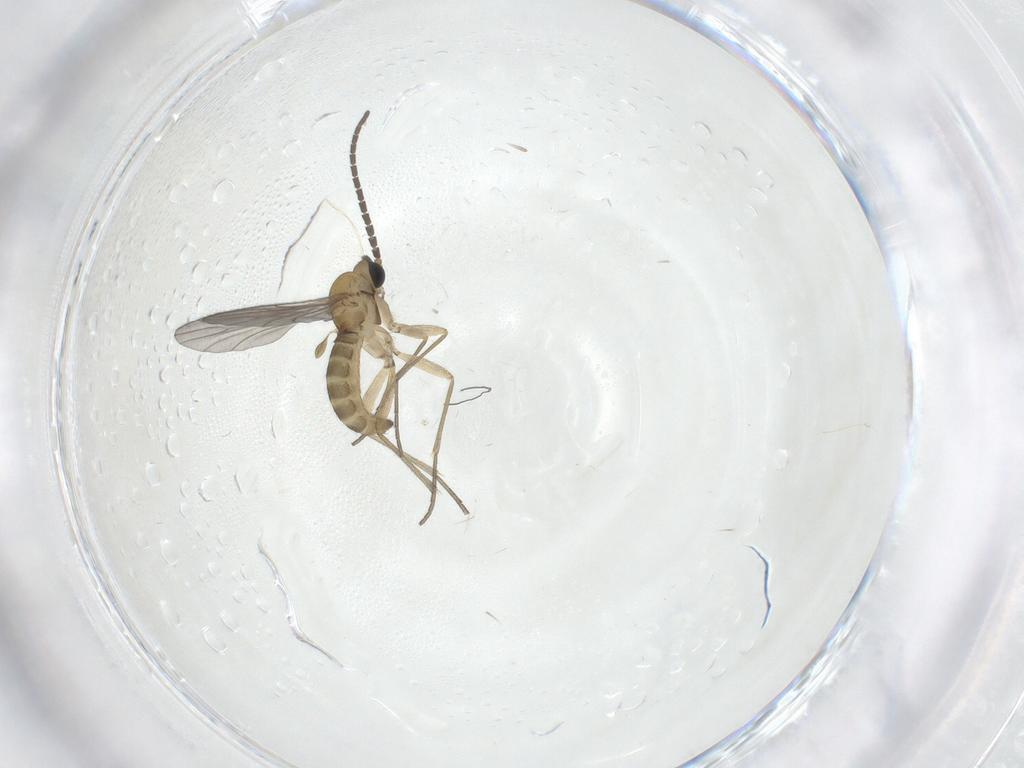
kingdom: Animalia
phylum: Arthropoda
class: Insecta
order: Diptera
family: Sciaridae
